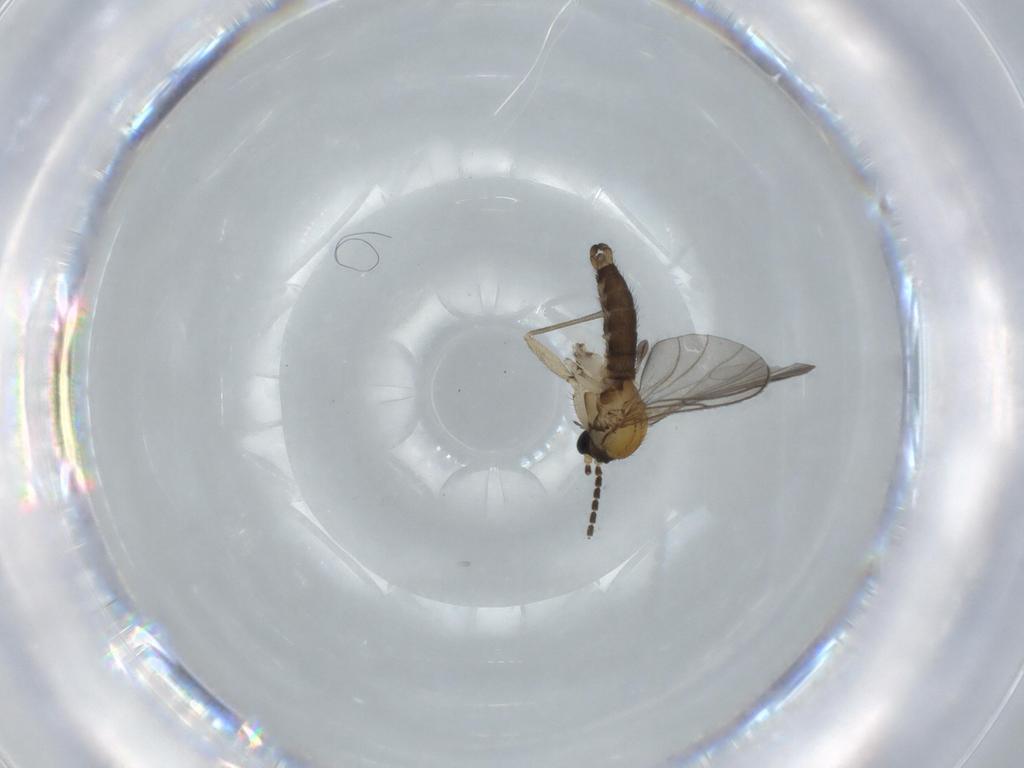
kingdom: Animalia
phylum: Arthropoda
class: Insecta
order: Diptera
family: Sciaridae
